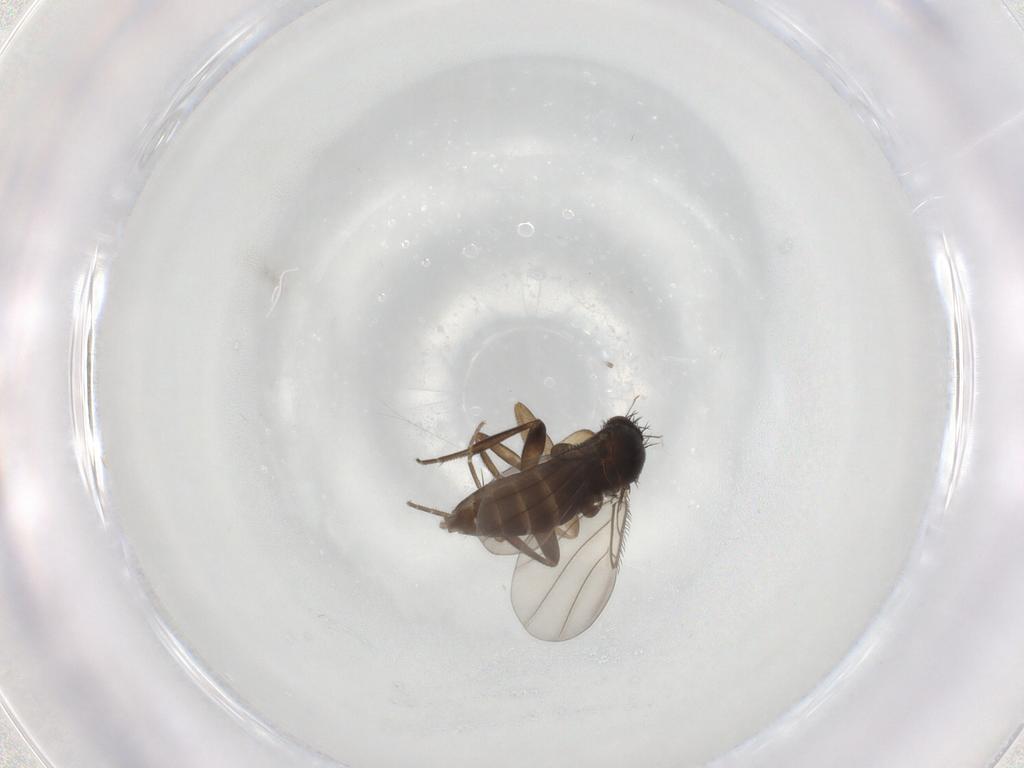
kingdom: Animalia
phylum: Arthropoda
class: Insecta
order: Diptera
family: Phoridae
